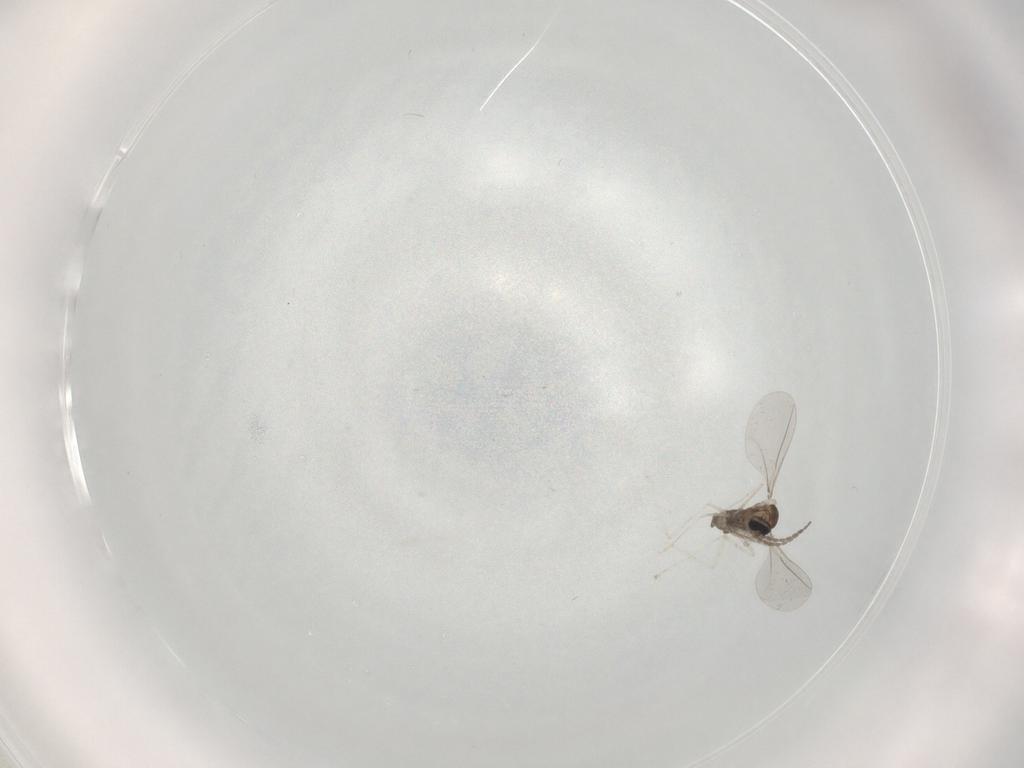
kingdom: Animalia
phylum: Arthropoda
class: Insecta
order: Diptera
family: Cecidomyiidae
